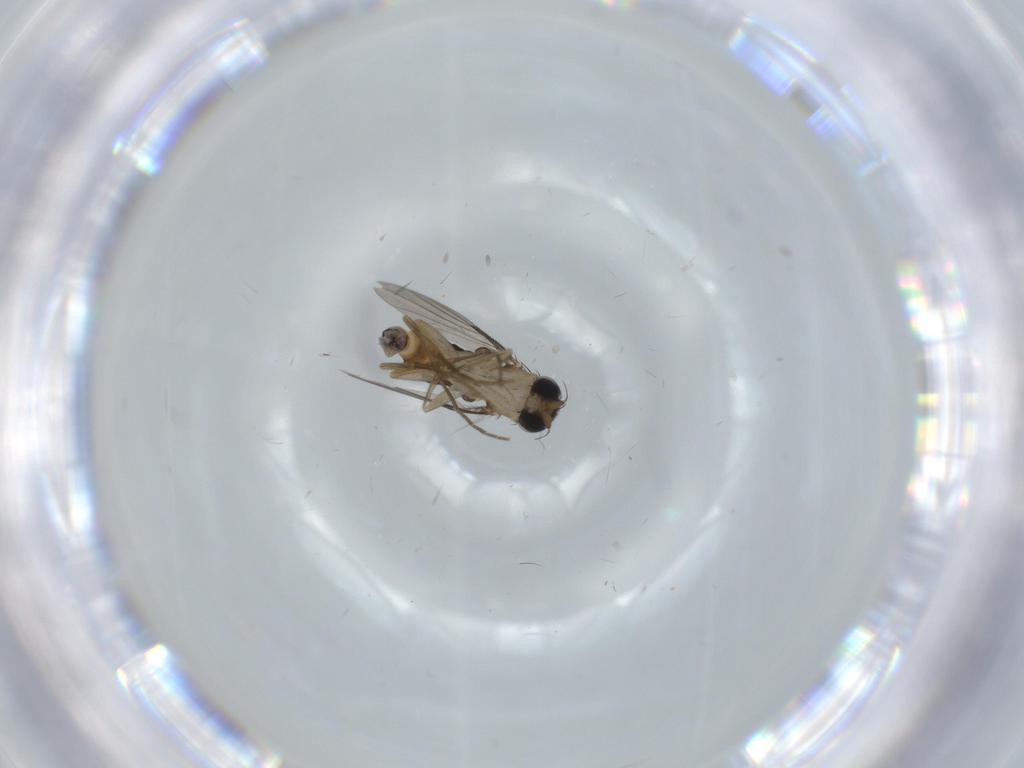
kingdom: Animalia
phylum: Arthropoda
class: Insecta
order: Diptera
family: Phoridae
